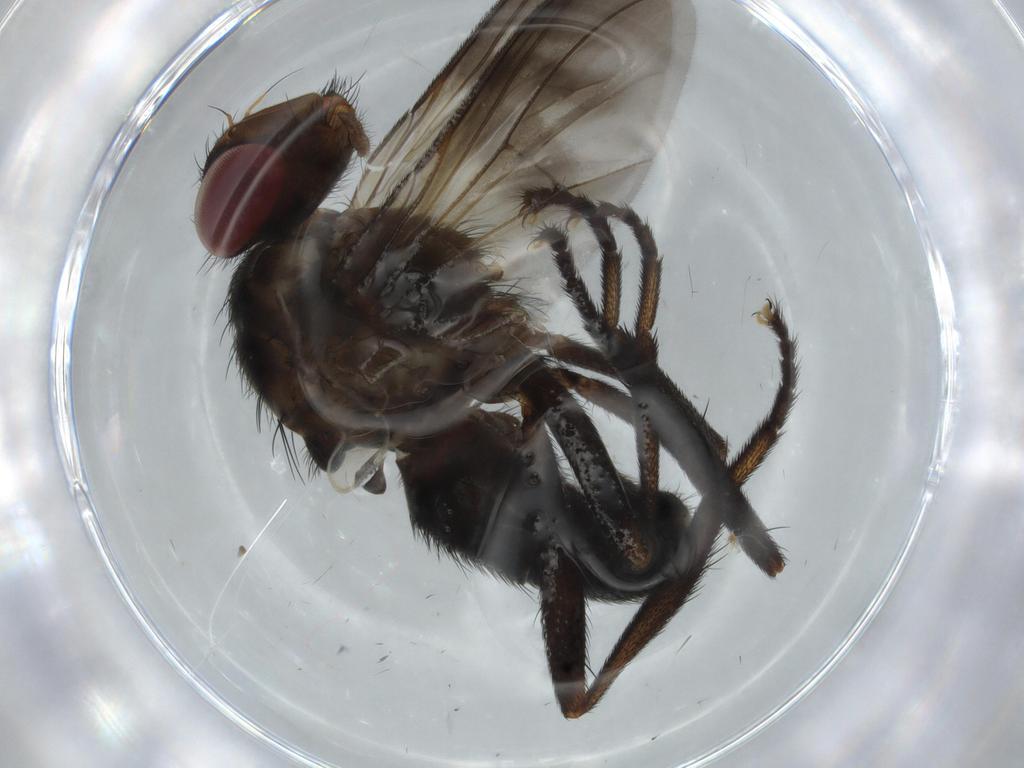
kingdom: Animalia
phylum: Arthropoda
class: Insecta
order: Diptera
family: Calliphoridae
